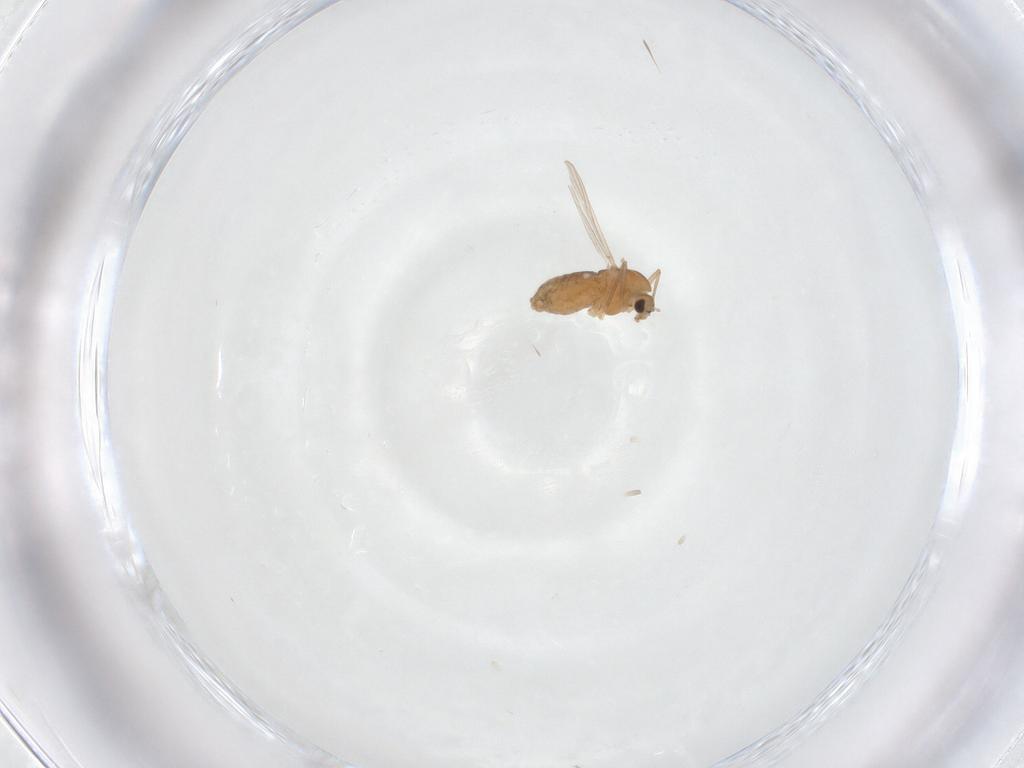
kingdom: Animalia
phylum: Arthropoda
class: Insecta
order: Diptera
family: Chironomidae
